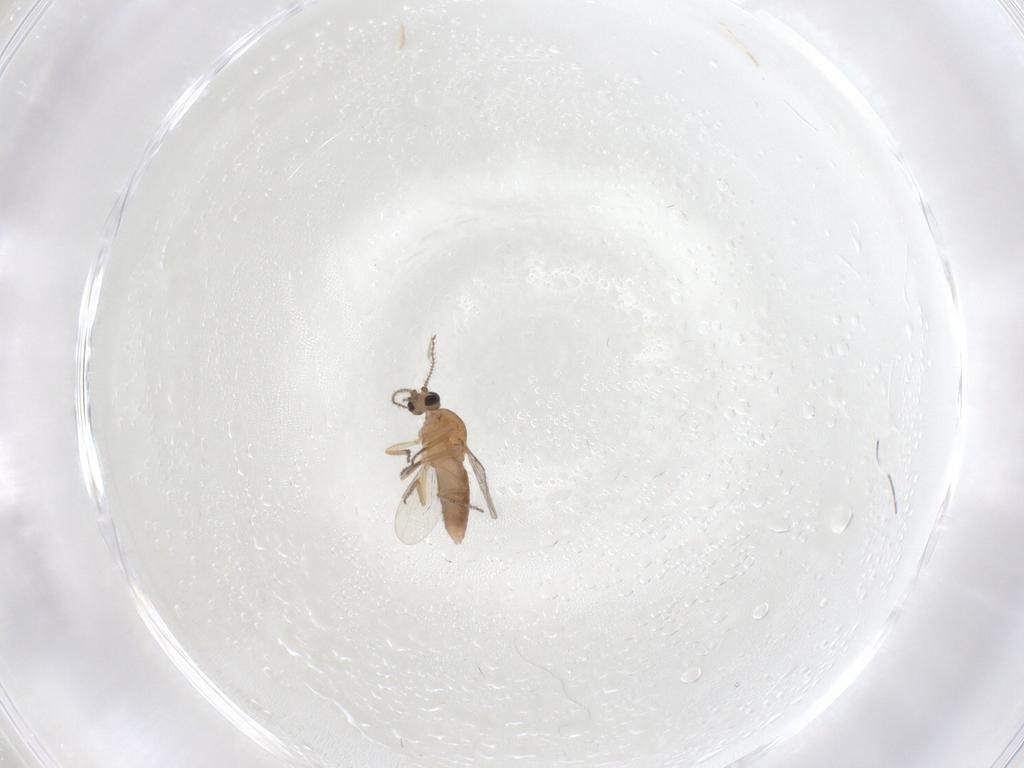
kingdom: Animalia
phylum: Arthropoda
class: Insecta
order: Diptera
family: Ceratopogonidae
